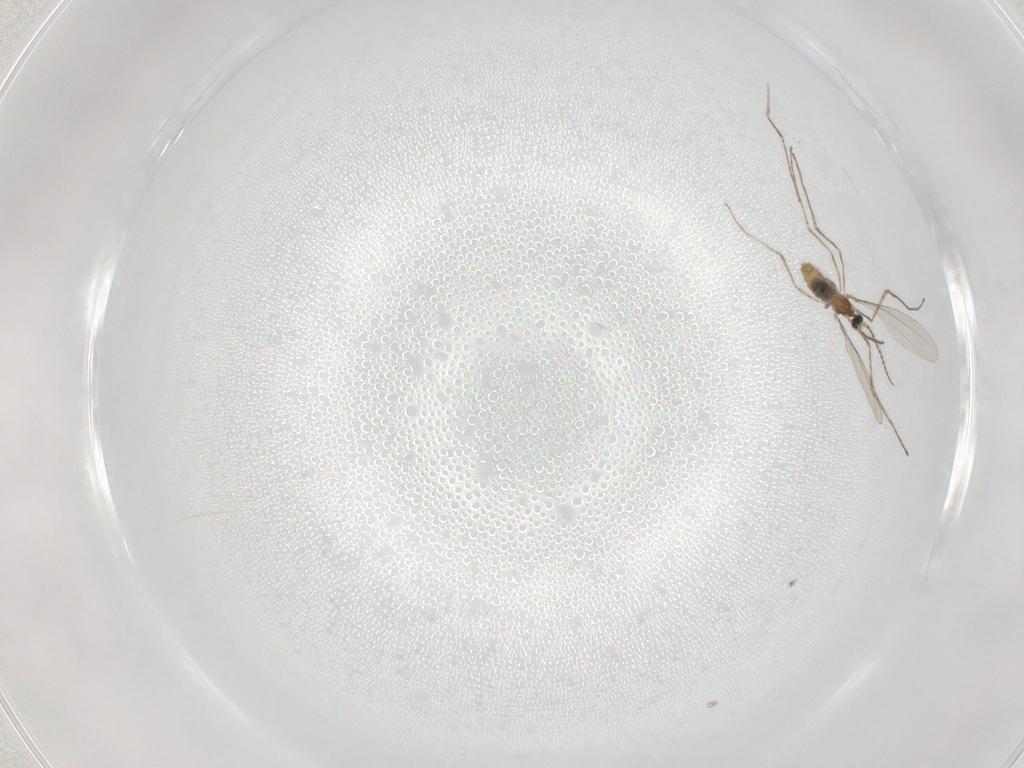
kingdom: Animalia
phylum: Arthropoda
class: Insecta
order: Diptera
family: Cecidomyiidae
